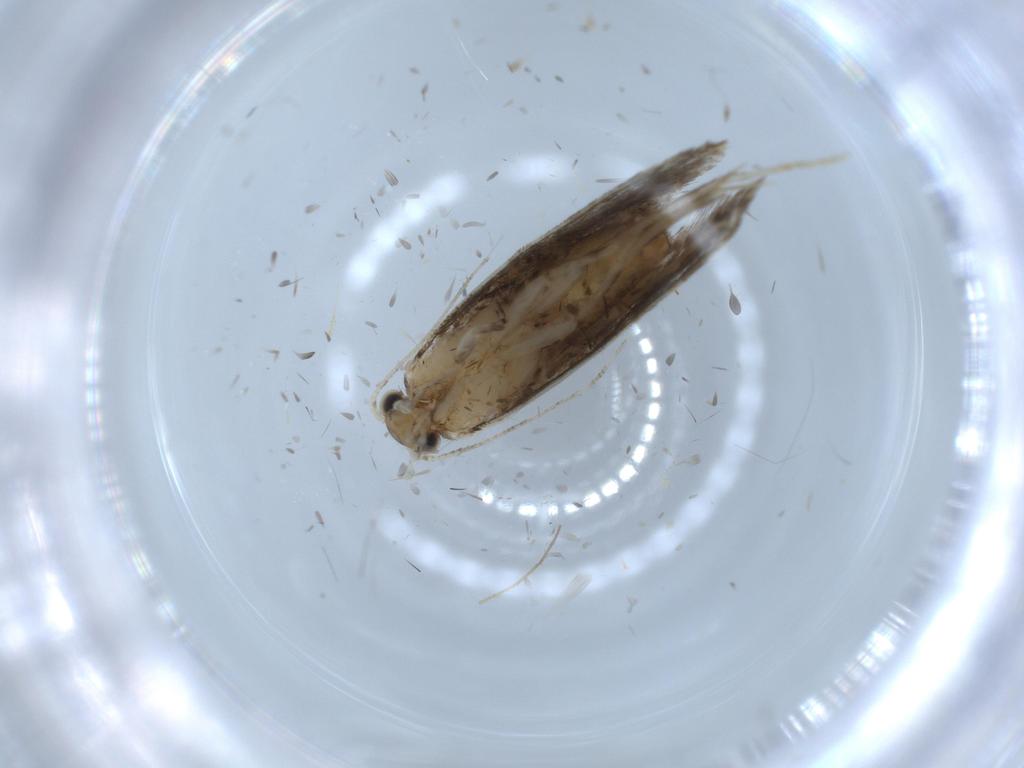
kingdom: Animalia
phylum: Arthropoda
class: Insecta
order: Lepidoptera
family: Tineidae
